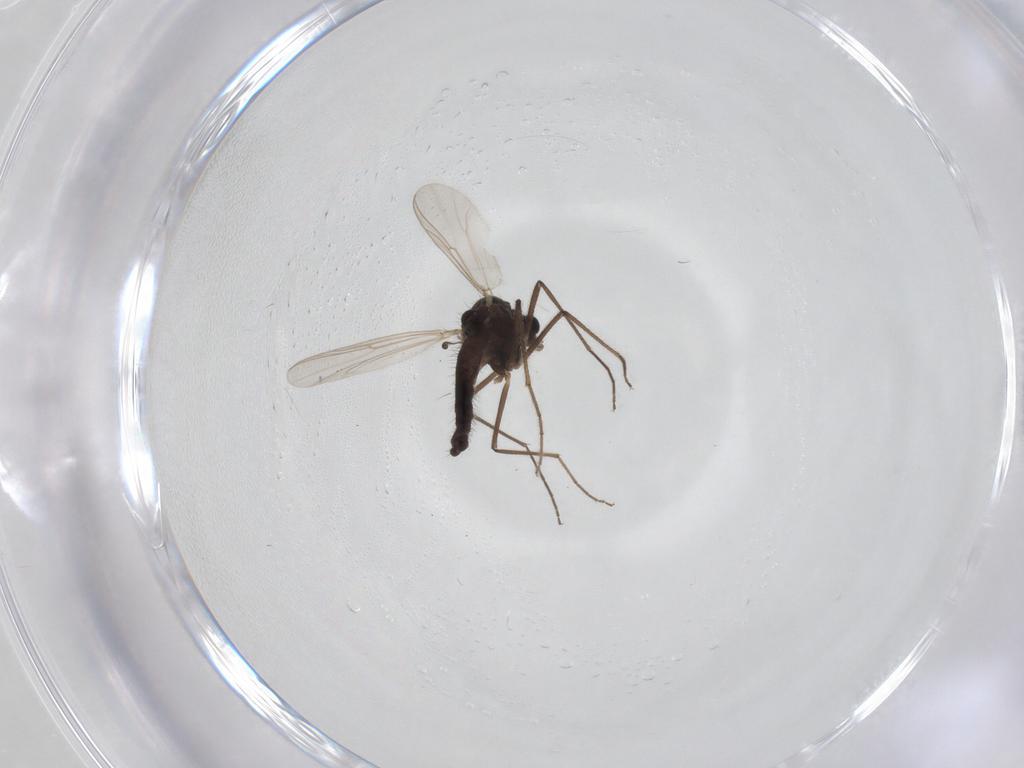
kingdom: Animalia
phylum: Arthropoda
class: Insecta
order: Diptera
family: Chironomidae
